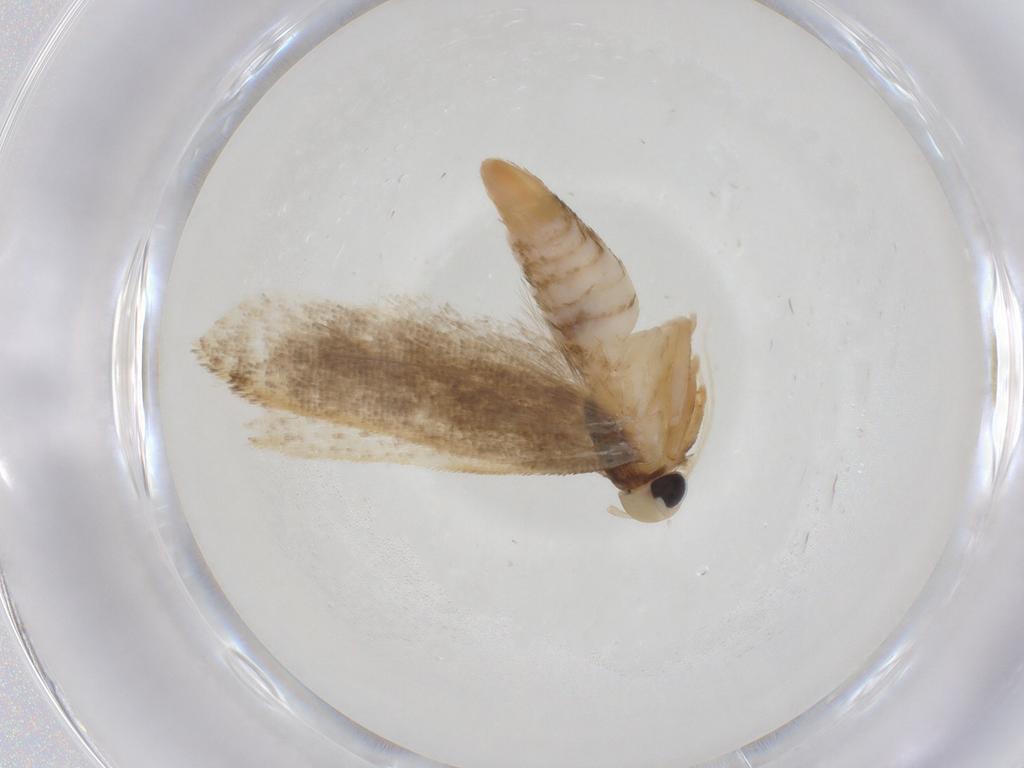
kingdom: Animalia
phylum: Arthropoda
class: Insecta
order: Lepidoptera
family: Gelechiidae
